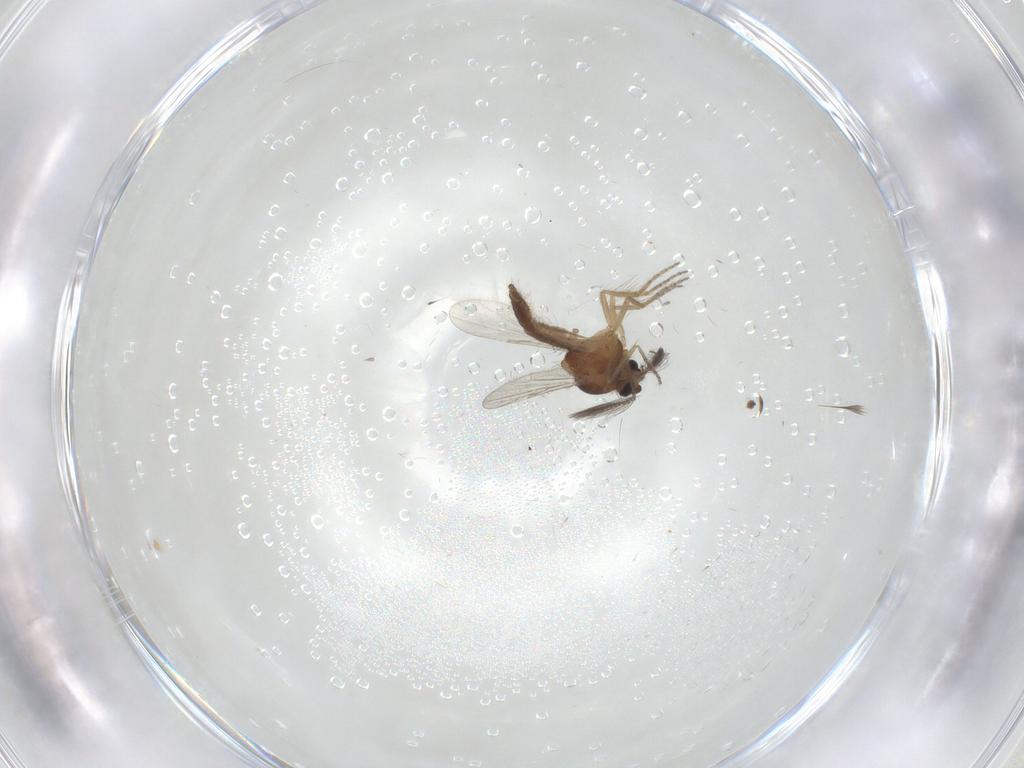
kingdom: Animalia
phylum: Arthropoda
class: Insecta
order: Diptera
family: Ceratopogonidae
